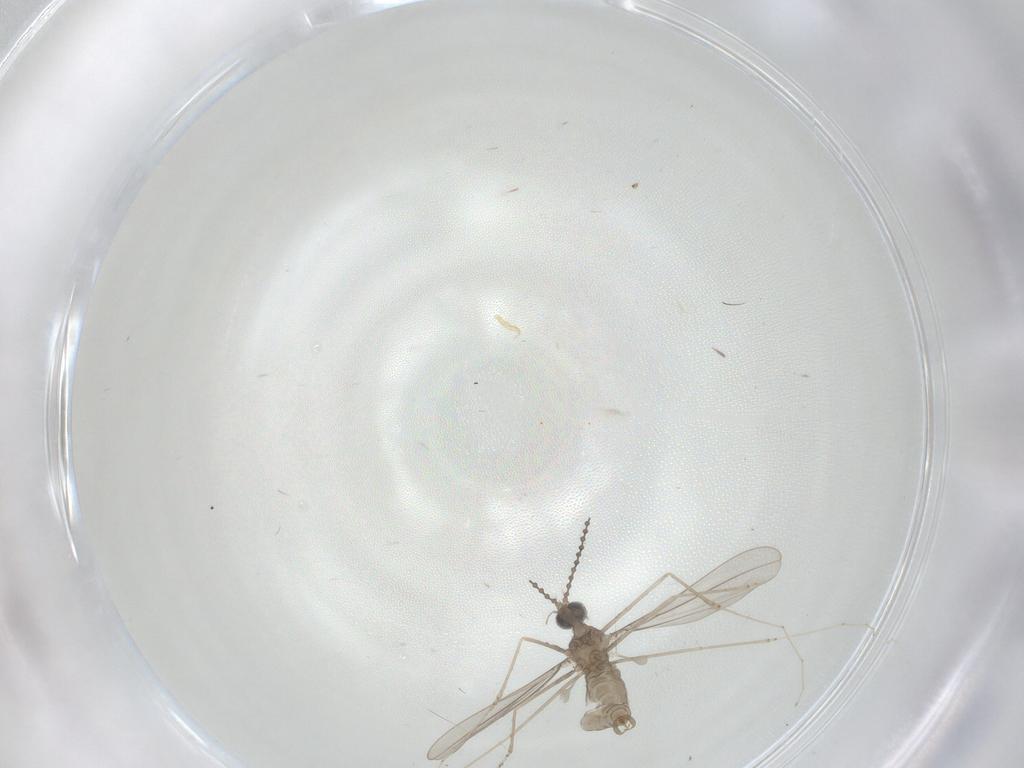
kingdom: Animalia
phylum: Arthropoda
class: Insecta
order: Diptera
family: Cecidomyiidae
